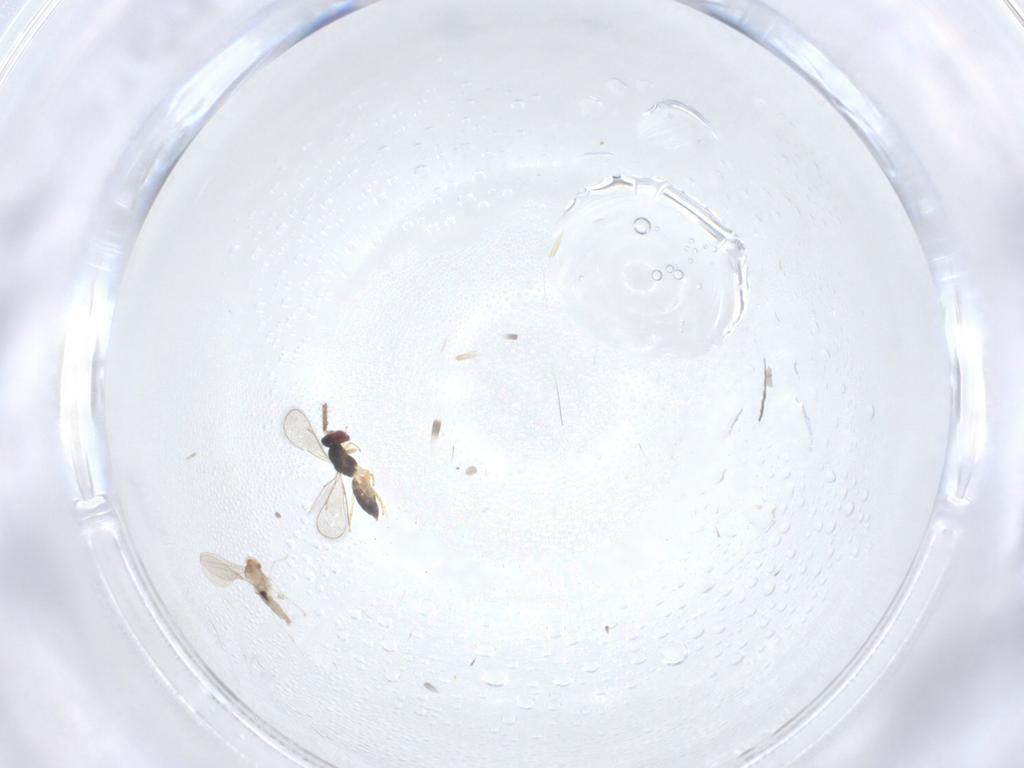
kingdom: Animalia
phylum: Arthropoda
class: Insecta
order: Hymenoptera
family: Eulophidae
